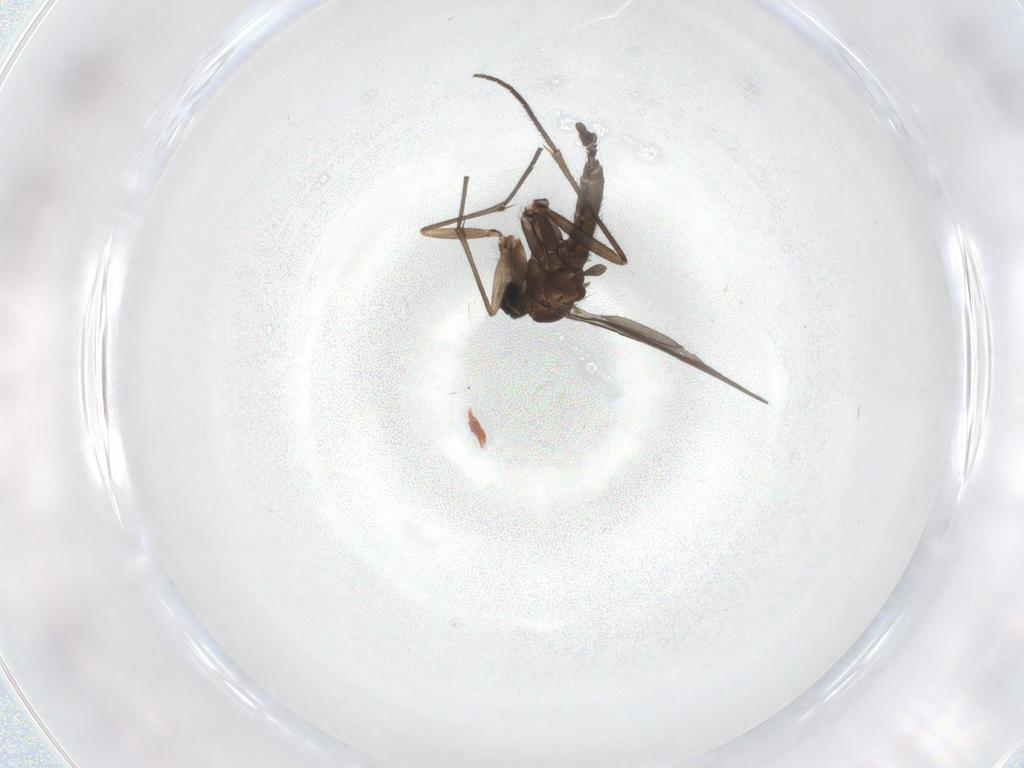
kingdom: Animalia
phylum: Arthropoda
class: Insecta
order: Diptera
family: Sciaridae
